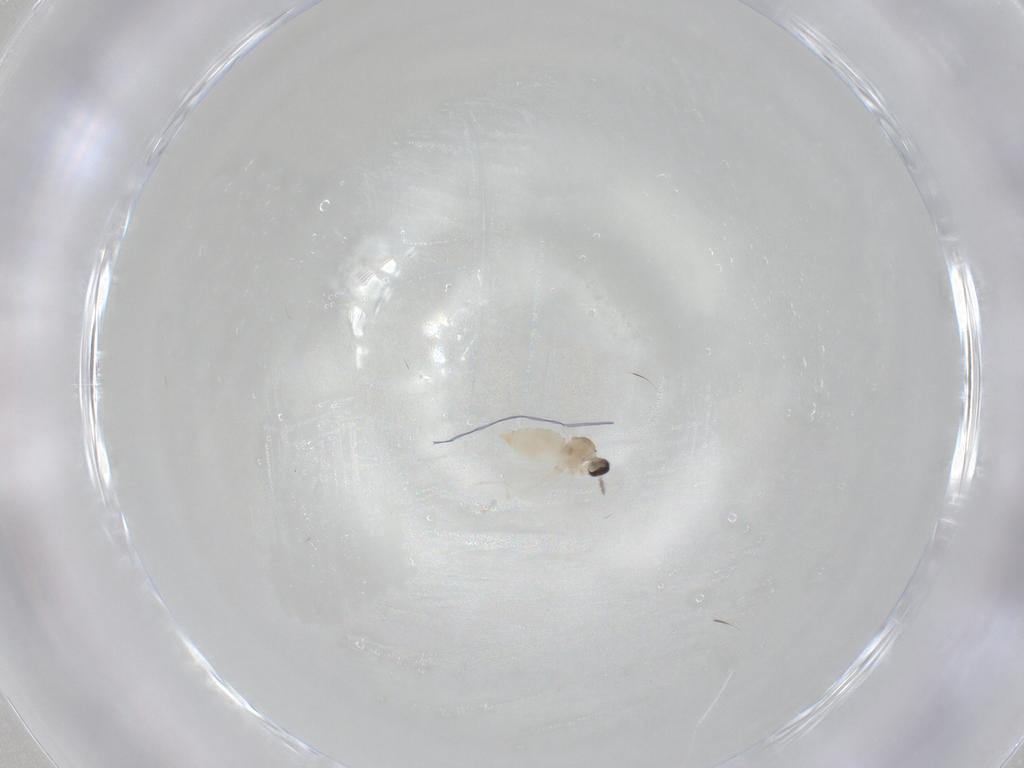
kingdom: Animalia
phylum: Arthropoda
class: Insecta
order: Diptera
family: Cecidomyiidae
